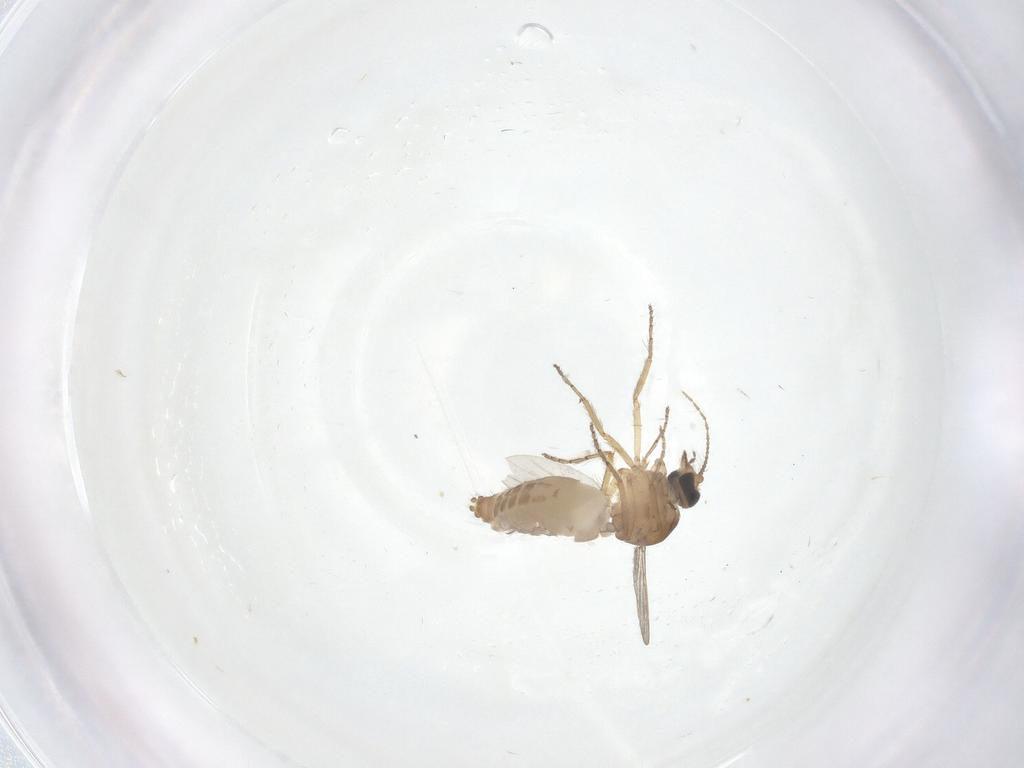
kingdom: Animalia
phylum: Arthropoda
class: Insecta
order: Diptera
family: Ceratopogonidae
